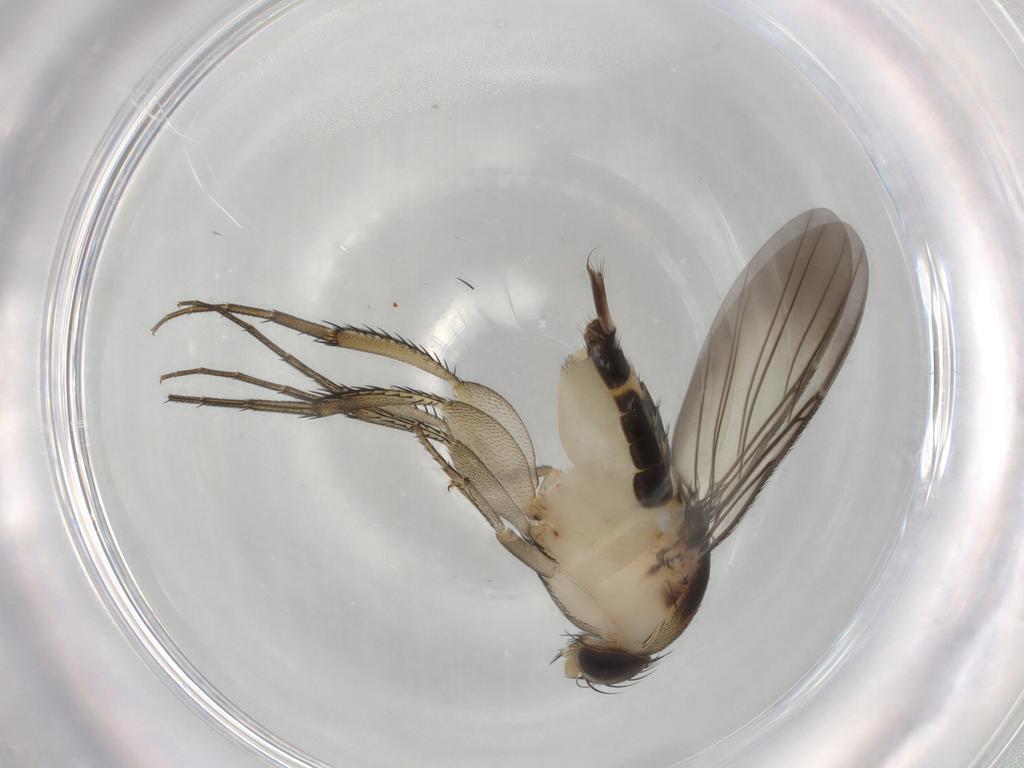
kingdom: Animalia
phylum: Arthropoda
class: Insecta
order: Diptera
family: Phoridae
